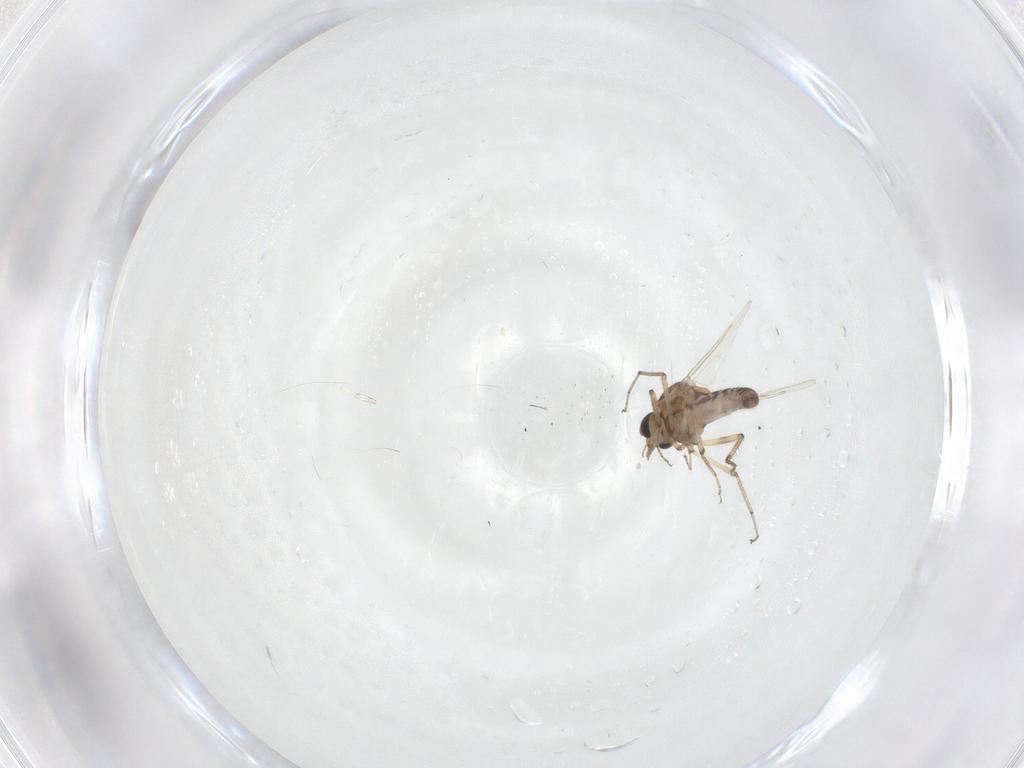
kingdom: Animalia
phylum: Arthropoda
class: Insecta
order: Diptera
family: Ceratopogonidae
